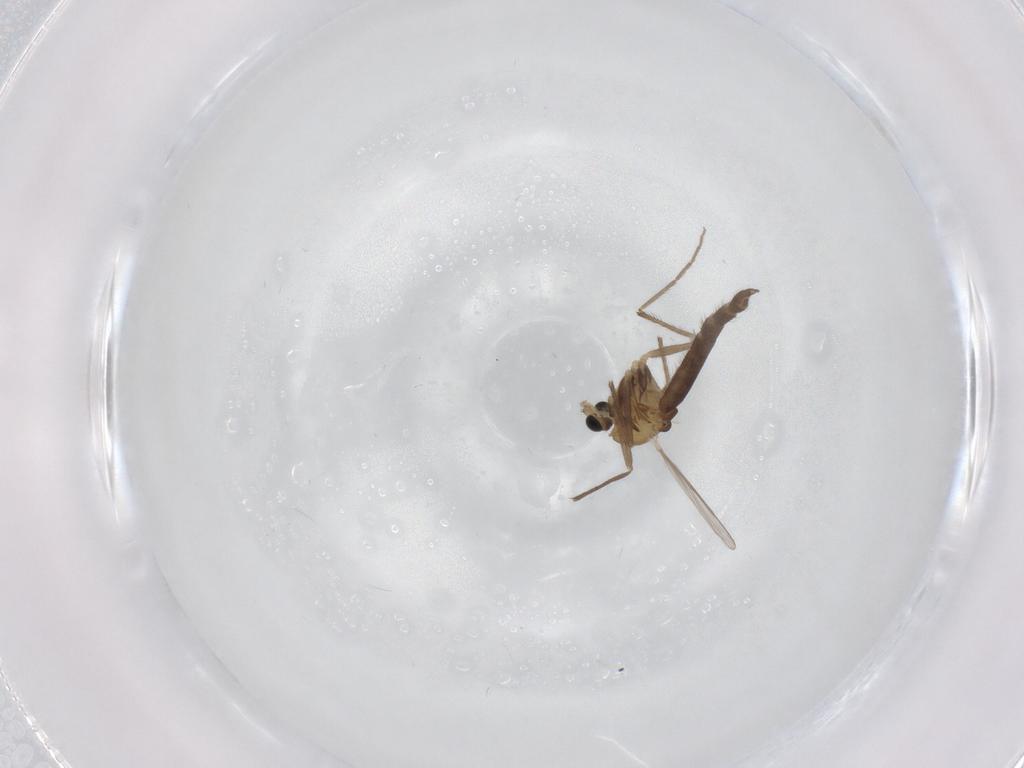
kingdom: Animalia
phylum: Arthropoda
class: Insecta
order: Diptera
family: Chironomidae
